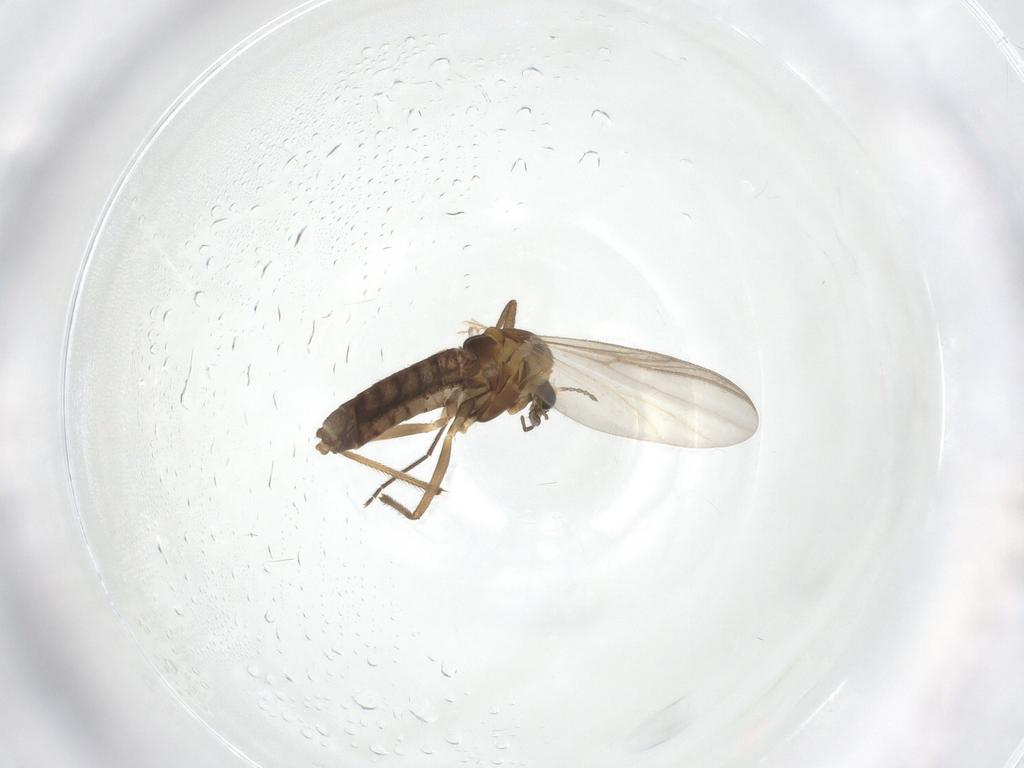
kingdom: Animalia
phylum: Arthropoda
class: Insecta
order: Diptera
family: Chironomidae
